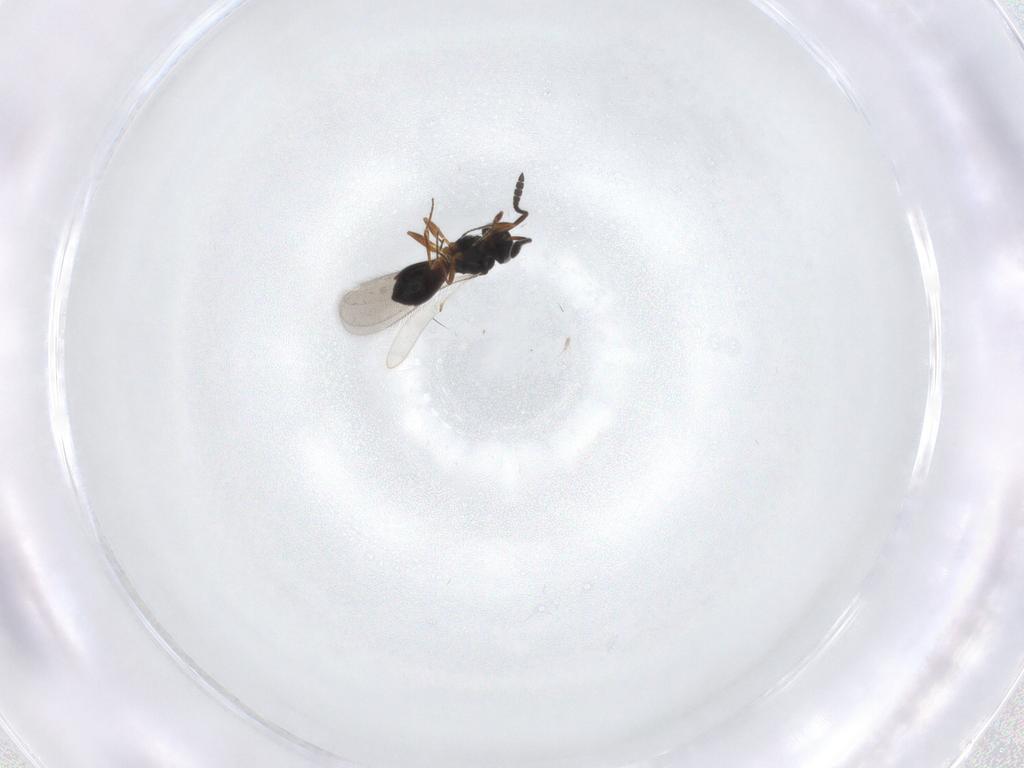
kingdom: Animalia
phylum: Arthropoda
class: Insecta
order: Hymenoptera
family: Scelionidae
